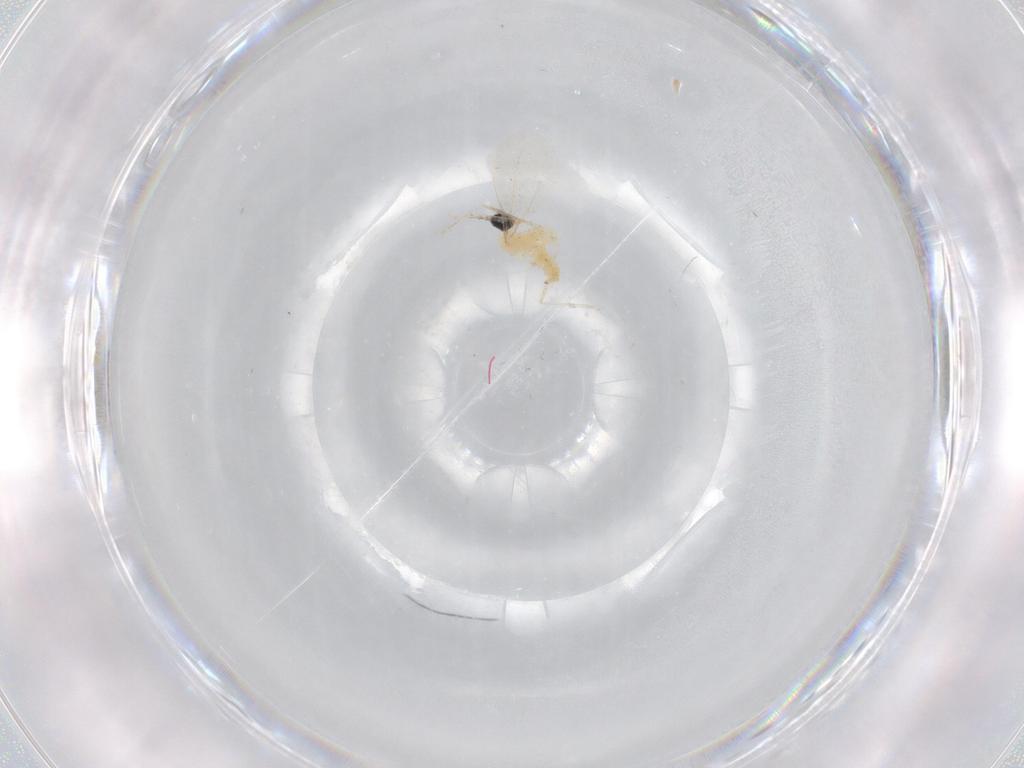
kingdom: Animalia
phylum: Arthropoda
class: Insecta
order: Diptera
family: Cecidomyiidae
